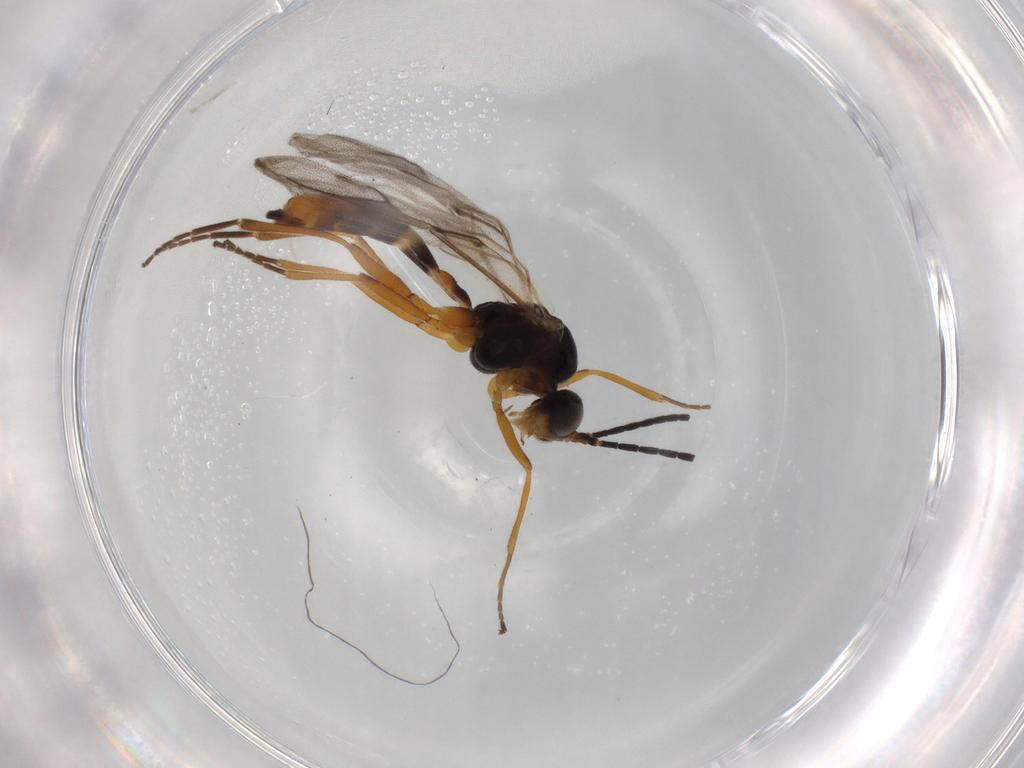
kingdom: Animalia
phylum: Arthropoda
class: Insecta
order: Hymenoptera
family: Braconidae
